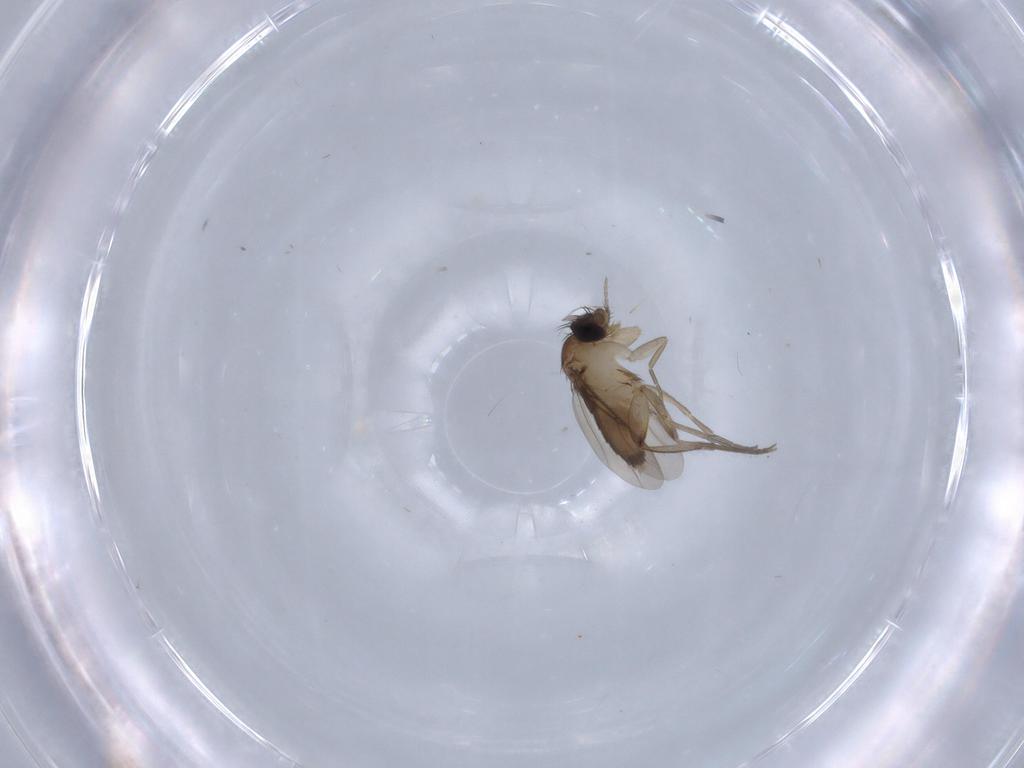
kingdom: Animalia
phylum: Arthropoda
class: Insecta
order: Diptera
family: Phoridae
